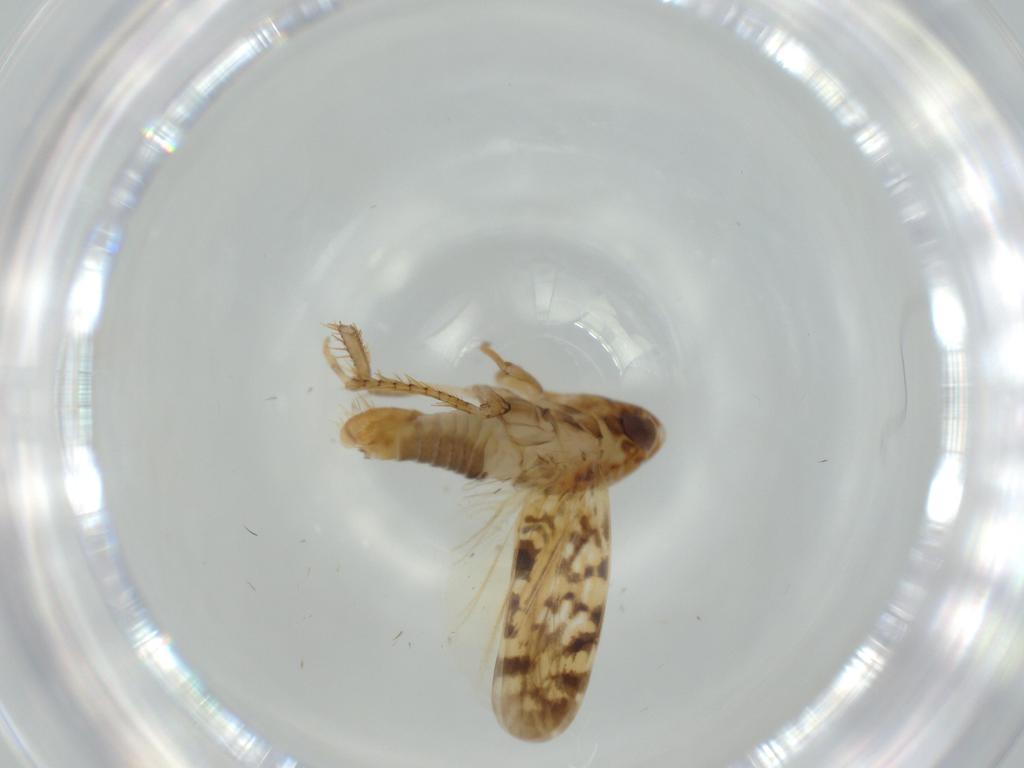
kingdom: Animalia
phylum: Arthropoda
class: Insecta
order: Hemiptera
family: Cicadellidae
